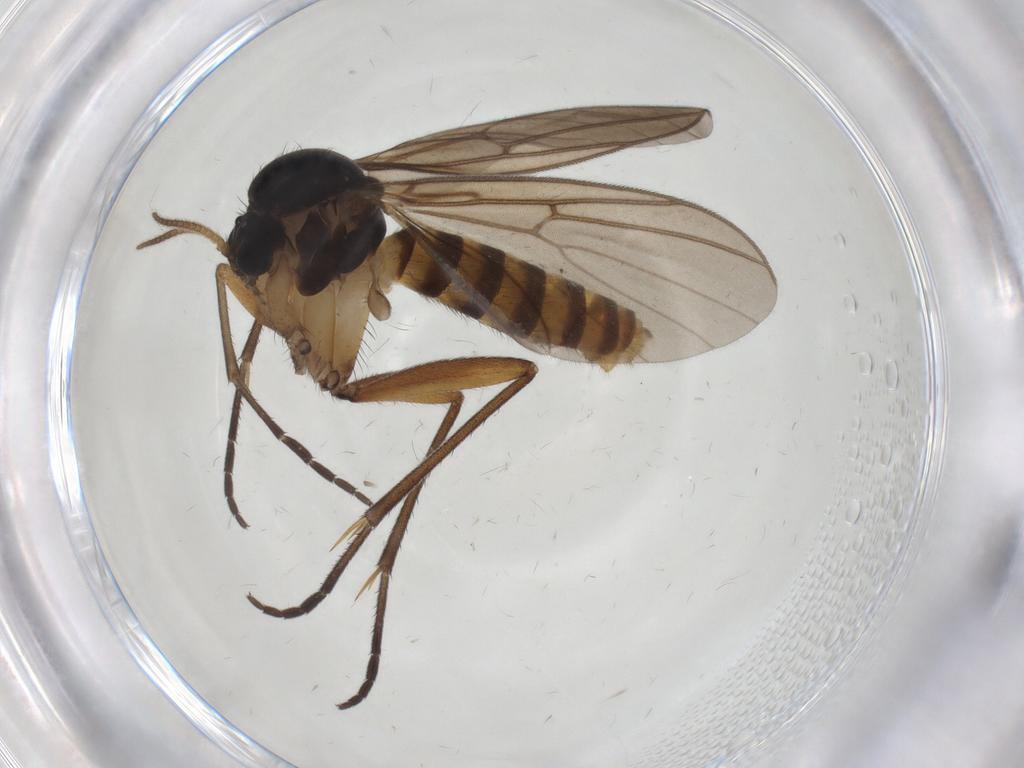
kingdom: Animalia
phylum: Arthropoda
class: Insecta
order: Diptera
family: Mycetophilidae
